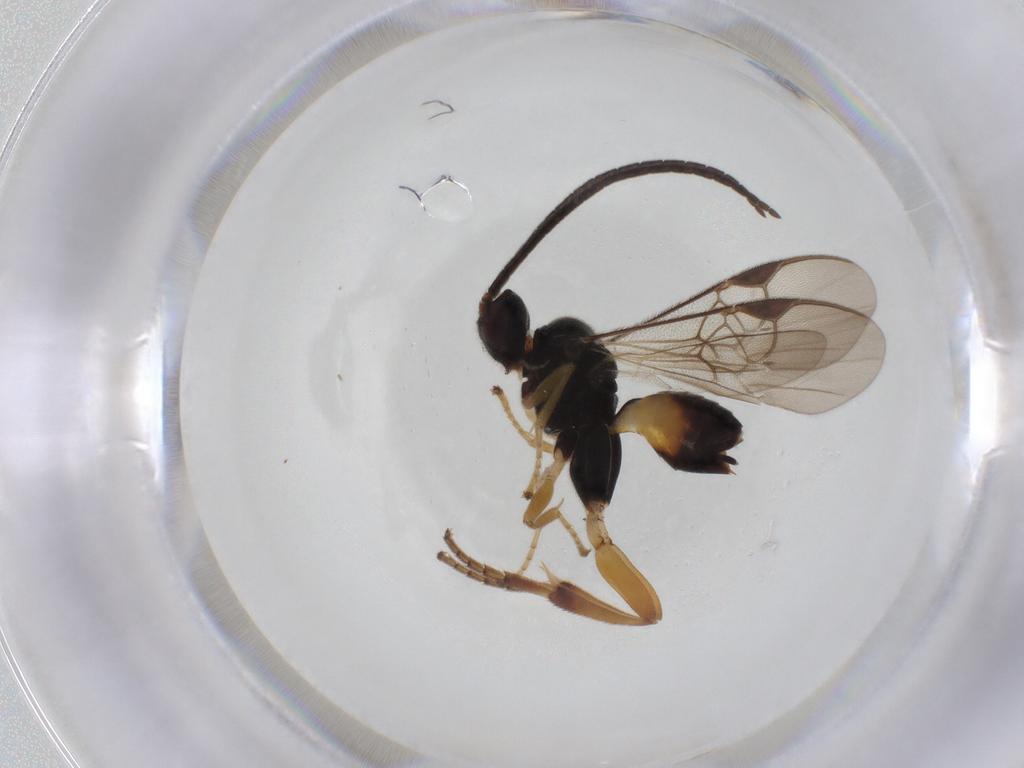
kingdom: Animalia
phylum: Arthropoda
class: Insecta
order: Hymenoptera
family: Braconidae
